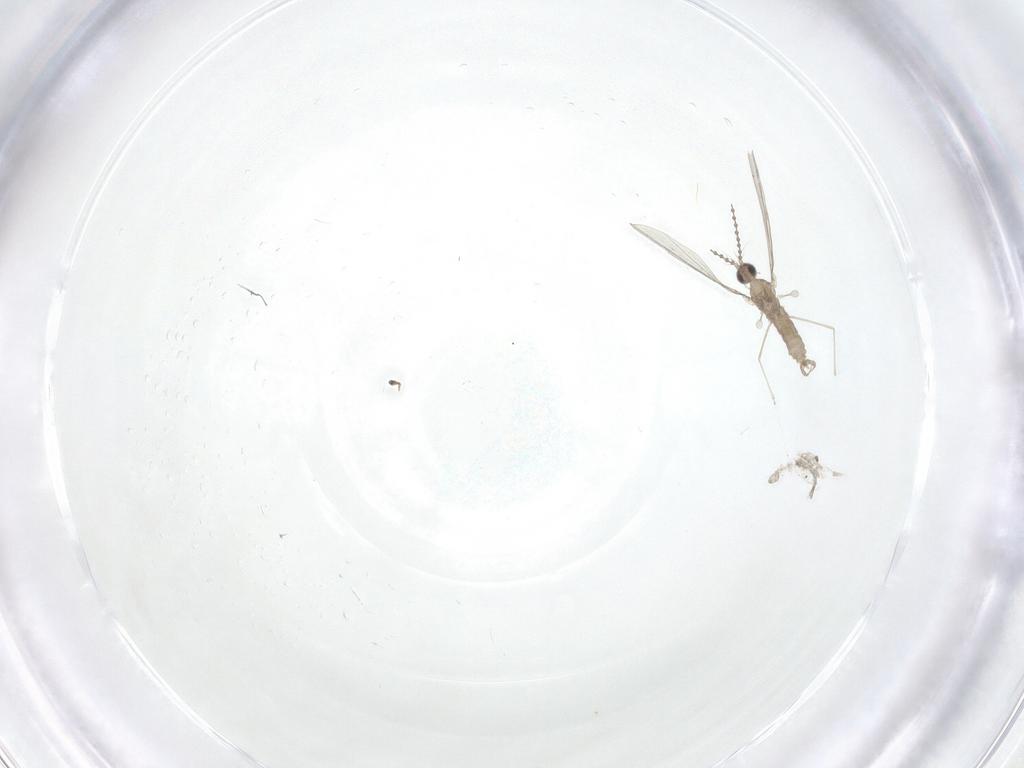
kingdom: Animalia
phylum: Arthropoda
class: Insecta
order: Diptera
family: Cecidomyiidae
